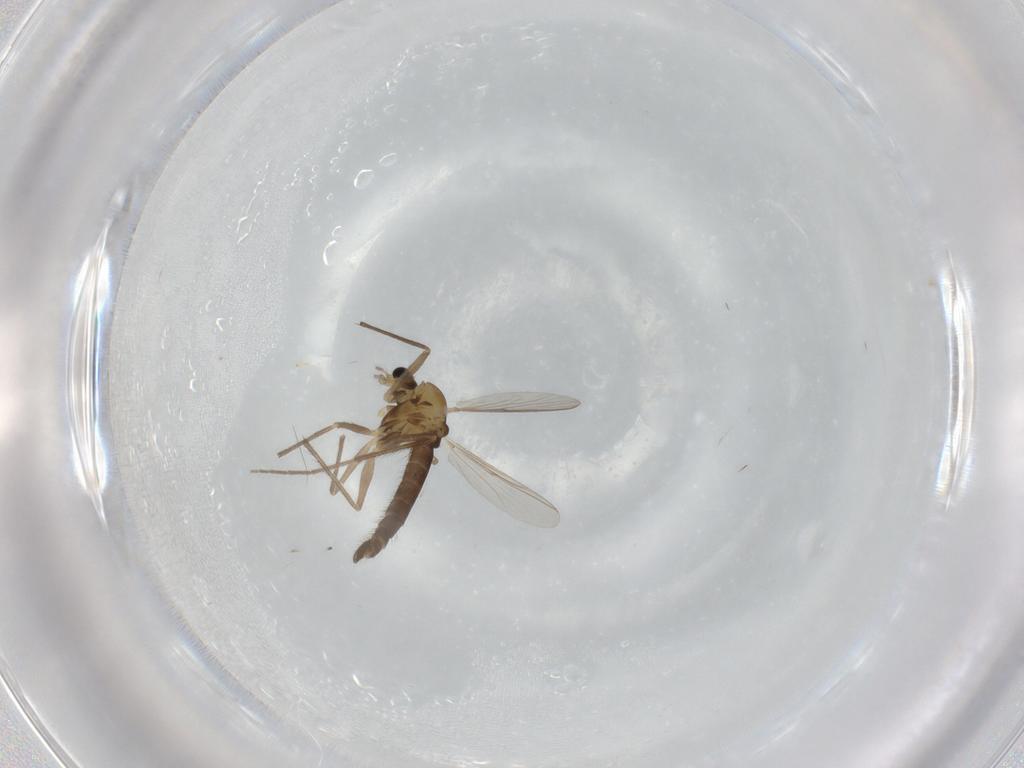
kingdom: Animalia
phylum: Arthropoda
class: Insecta
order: Diptera
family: Chironomidae
